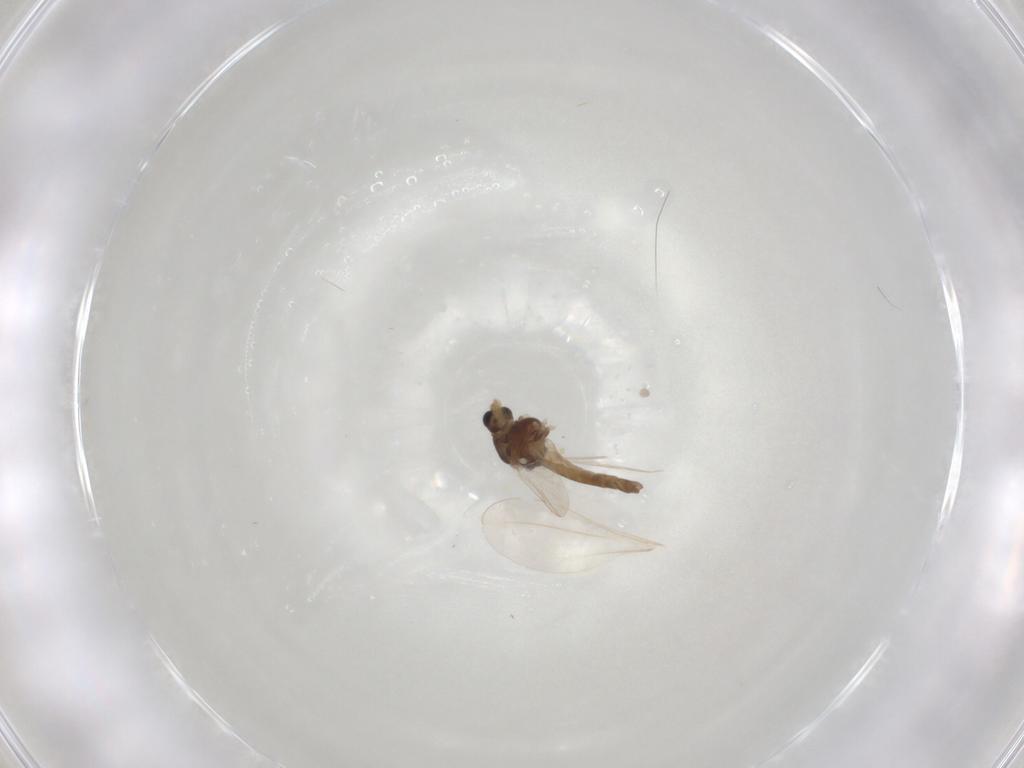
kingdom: Animalia
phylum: Arthropoda
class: Insecta
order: Diptera
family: Chironomidae
